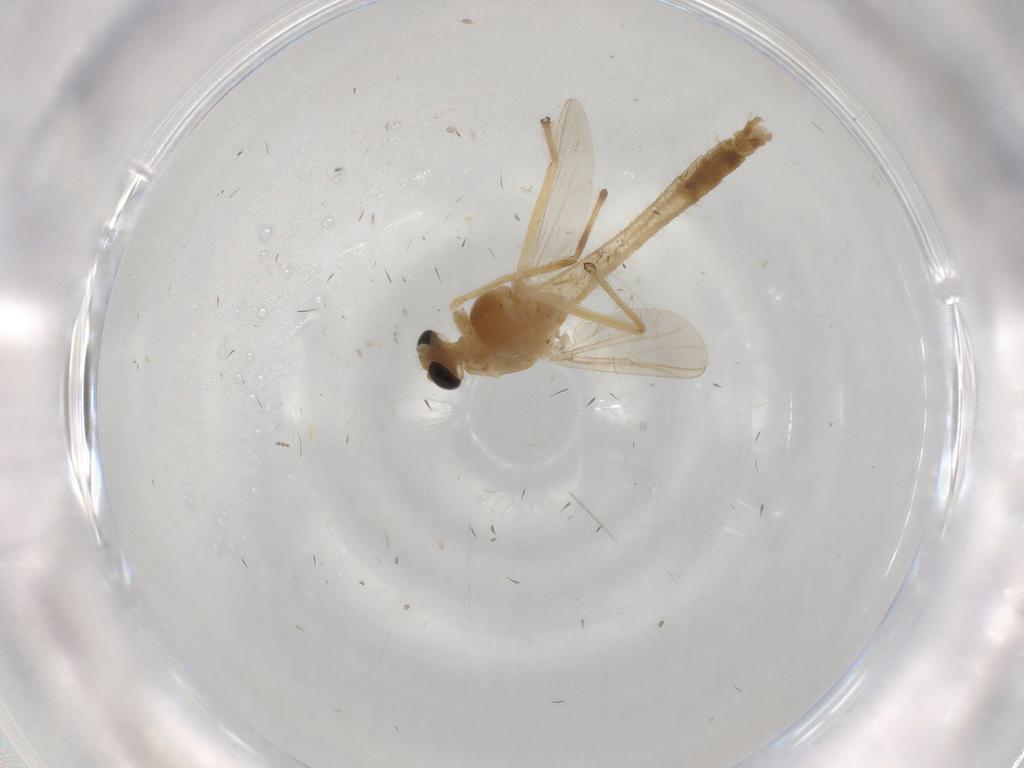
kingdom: Animalia
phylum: Arthropoda
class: Insecta
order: Diptera
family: Chironomidae
